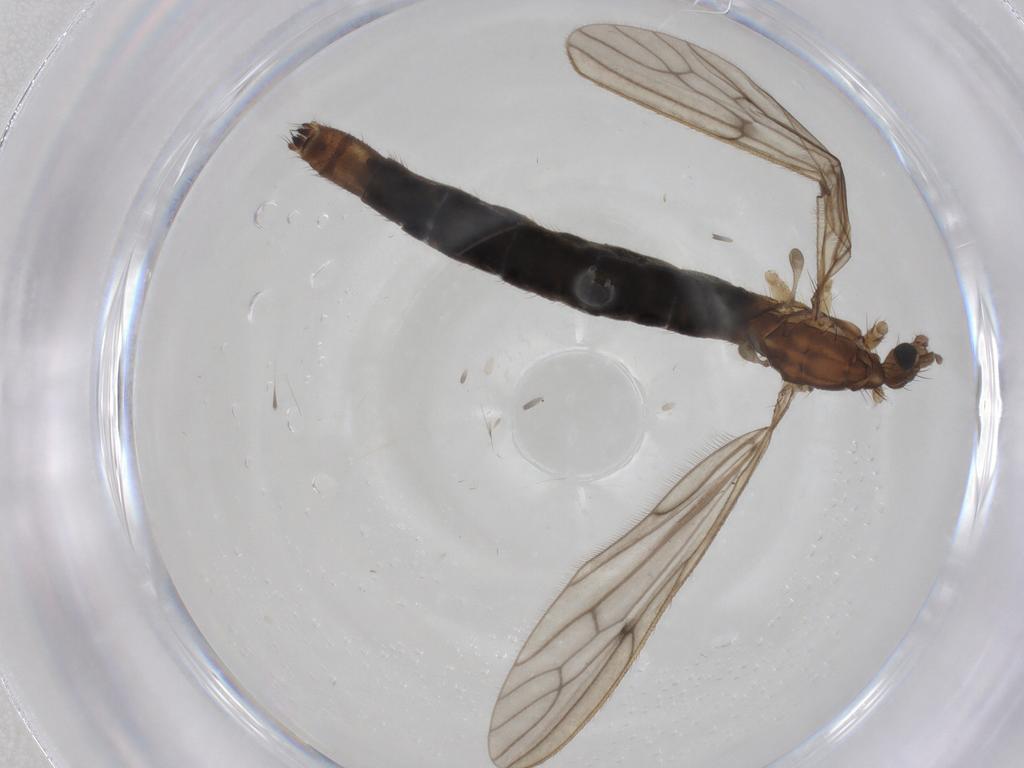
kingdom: Animalia
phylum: Arthropoda
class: Insecta
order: Diptera
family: Limoniidae
